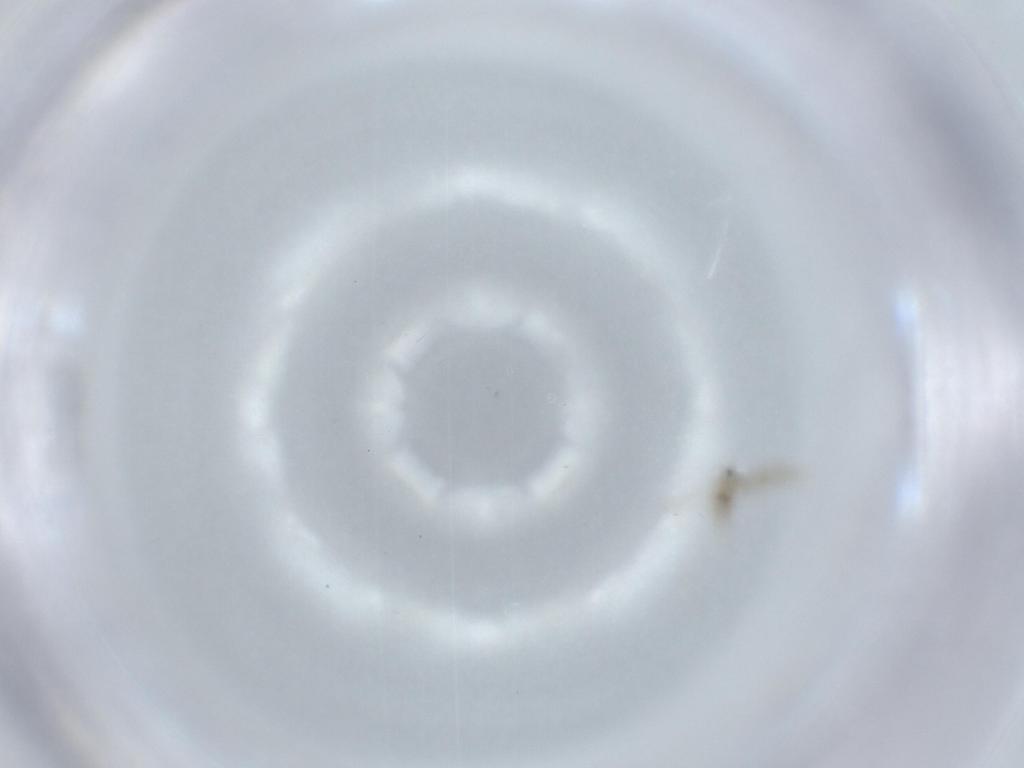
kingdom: Animalia
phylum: Arthropoda
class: Insecta
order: Diptera
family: Cecidomyiidae
